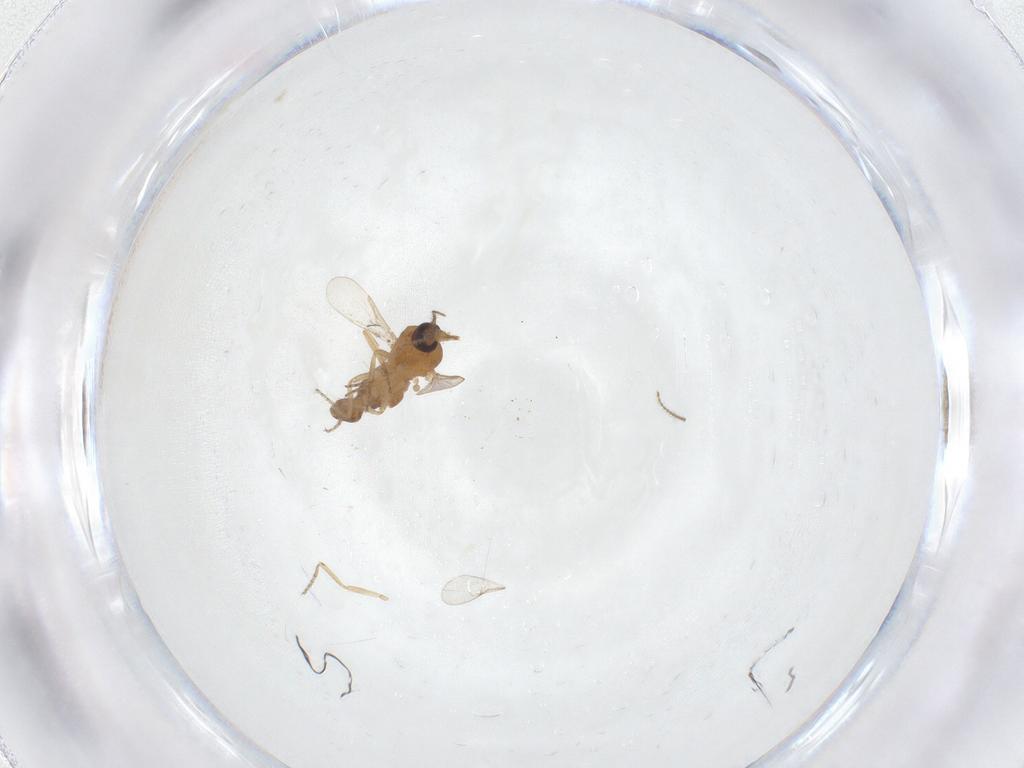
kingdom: Animalia
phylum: Arthropoda
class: Insecta
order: Diptera
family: Ceratopogonidae
